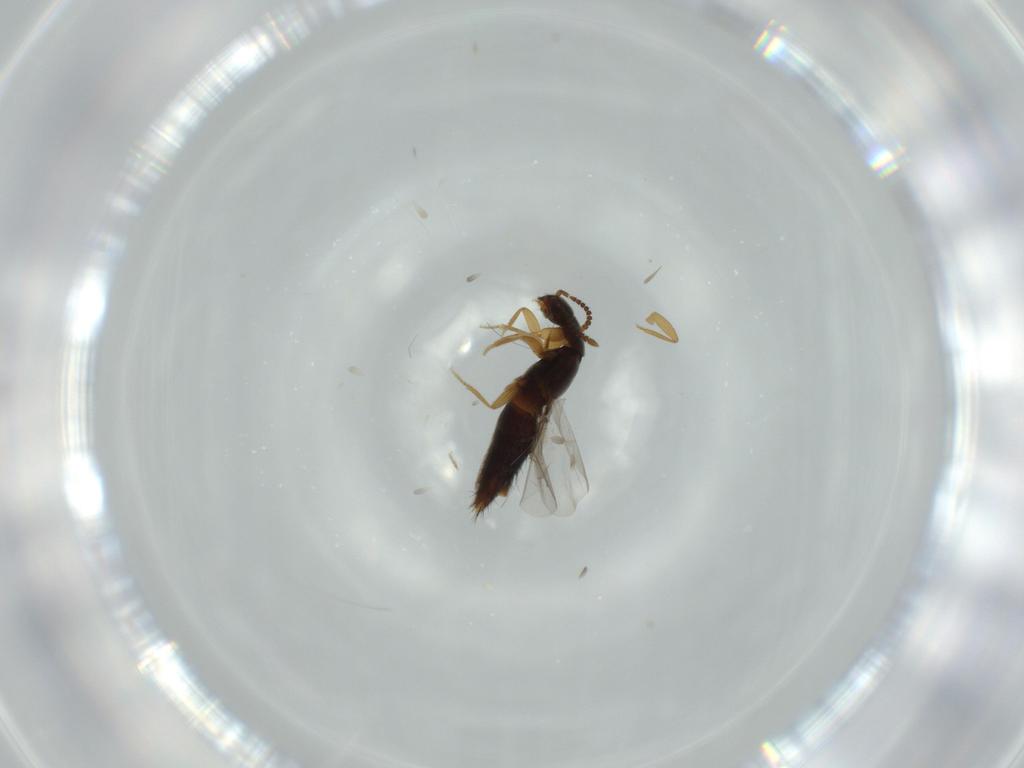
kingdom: Animalia
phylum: Arthropoda
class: Insecta
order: Coleoptera
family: Staphylinidae
